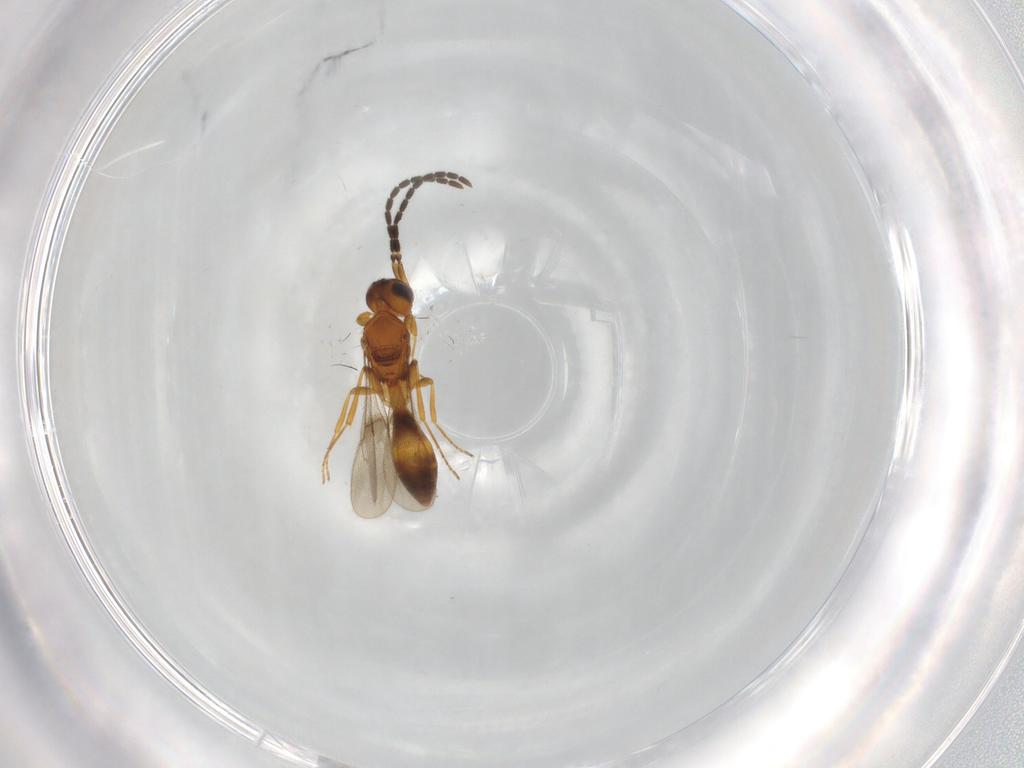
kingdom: Animalia
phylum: Arthropoda
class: Insecta
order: Hymenoptera
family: Scelionidae
